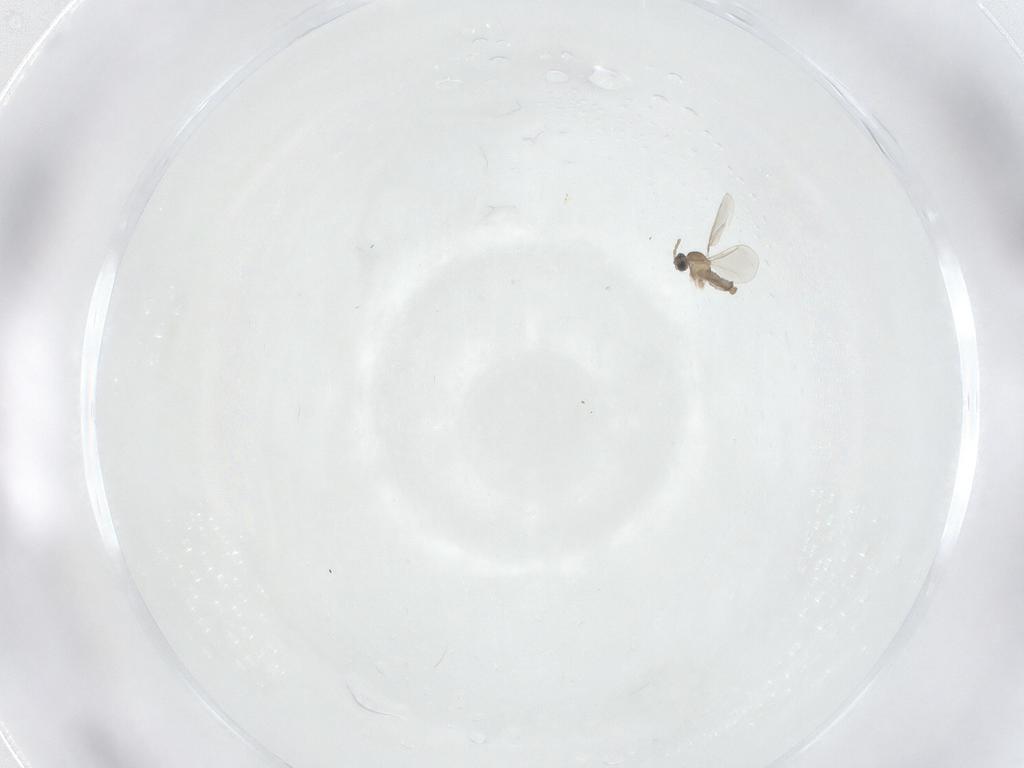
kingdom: Animalia
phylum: Arthropoda
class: Insecta
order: Diptera
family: Cecidomyiidae
